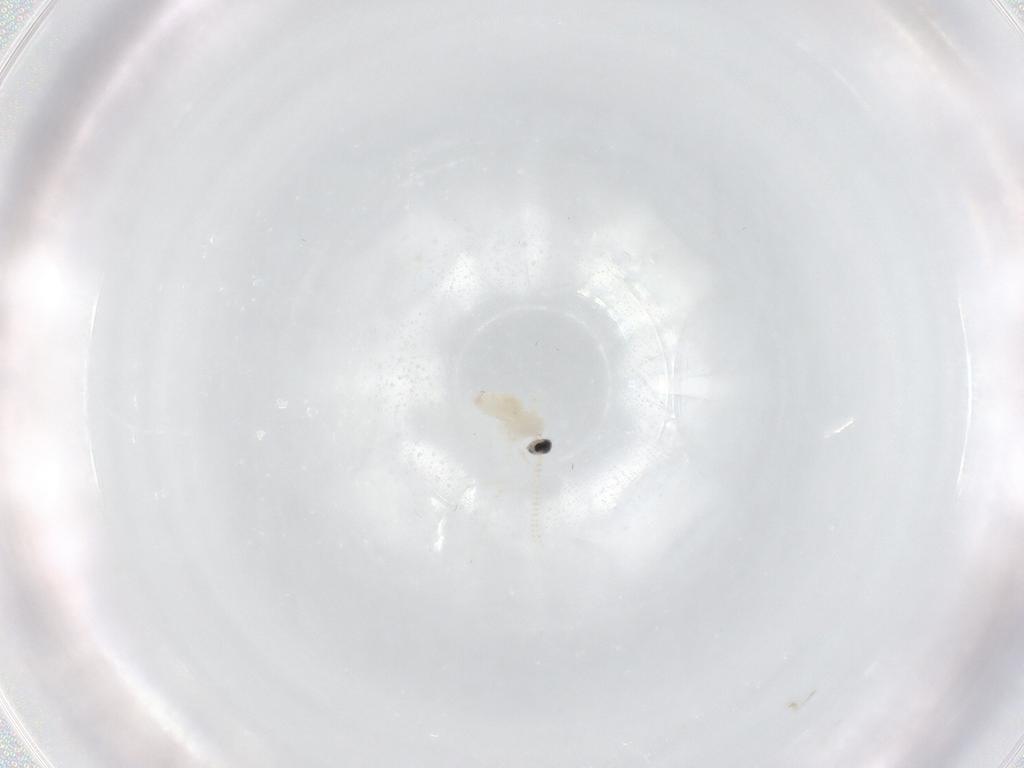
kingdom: Animalia
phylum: Arthropoda
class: Insecta
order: Diptera
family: Cecidomyiidae
